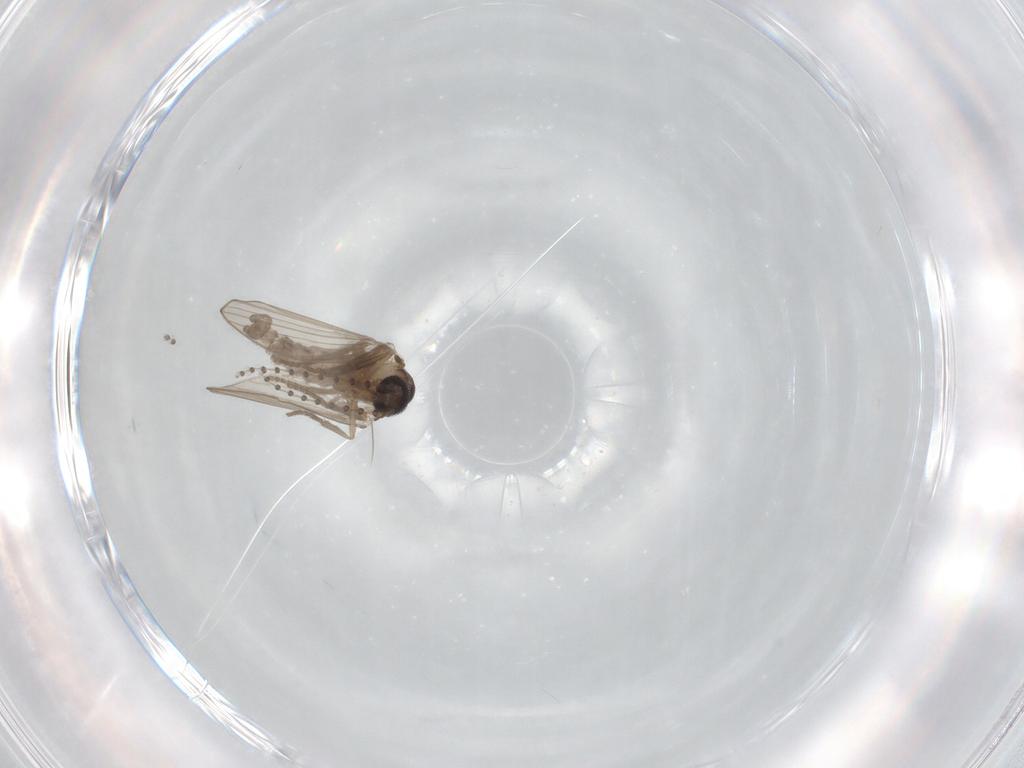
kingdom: Animalia
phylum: Arthropoda
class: Insecta
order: Diptera
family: Psychodidae
